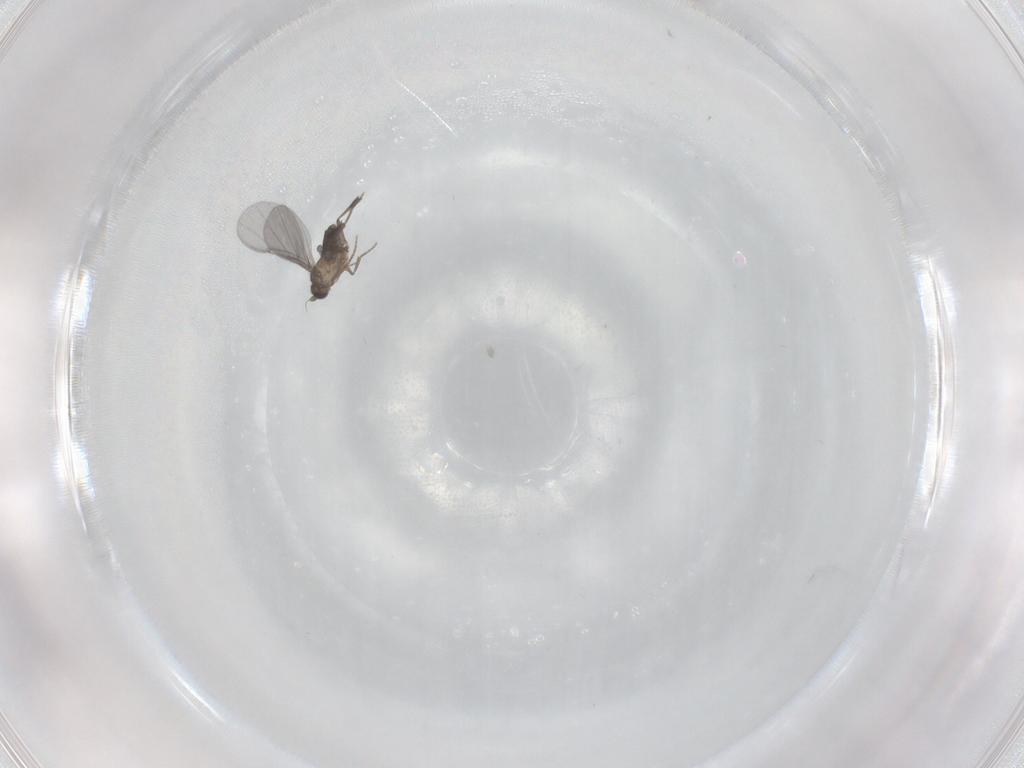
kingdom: Animalia
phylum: Arthropoda
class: Insecta
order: Diptera
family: Phoridae
